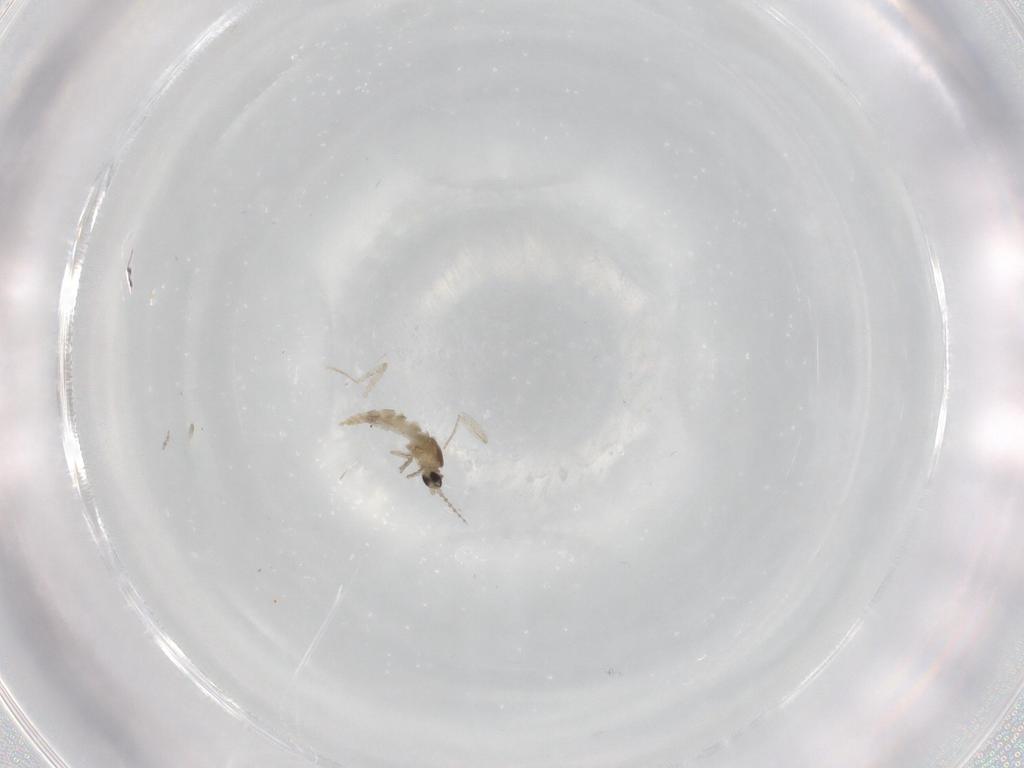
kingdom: Animalia
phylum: Arthropoda
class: Insecta
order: Diptera
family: Cecidomyiidae
